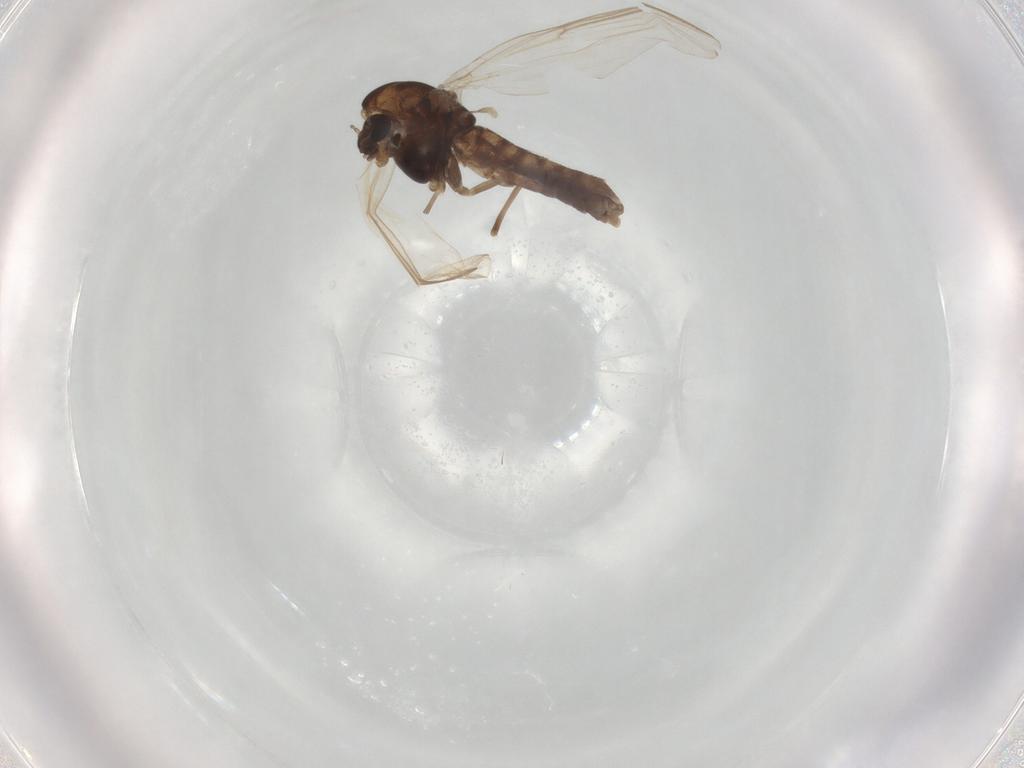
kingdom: Animalia
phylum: Arthropoda
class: Insecta
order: Diptera
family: Chironomidae
